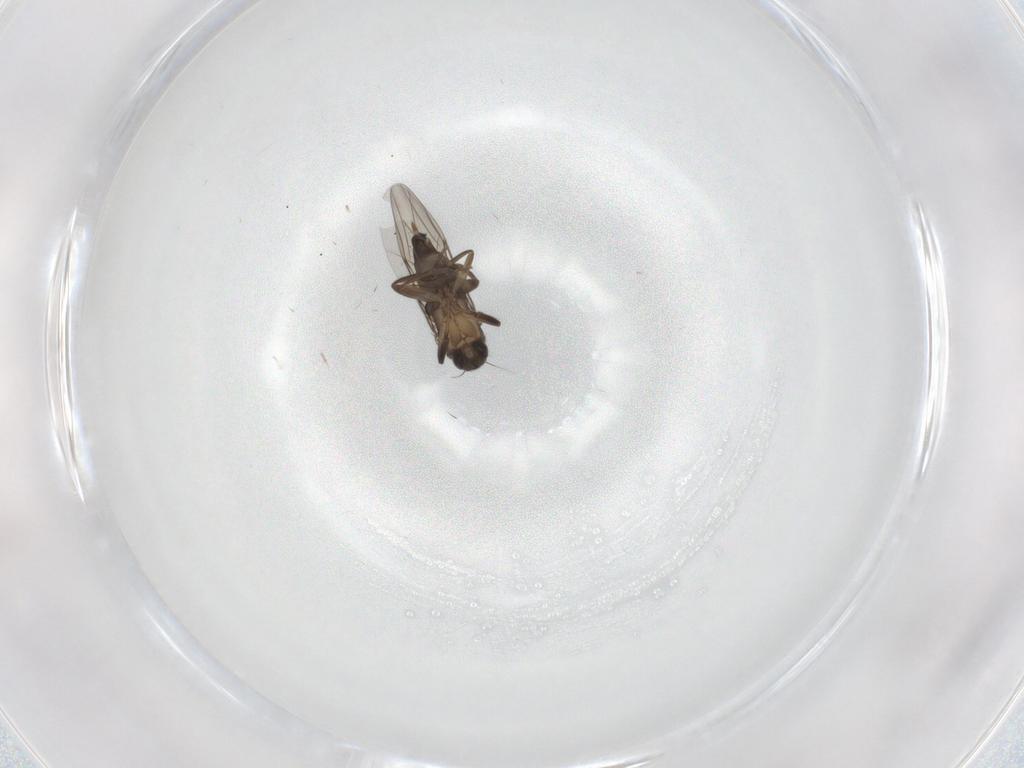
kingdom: Animalia
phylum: Arthropoda
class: Insecta
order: Diptera
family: Phoridae
